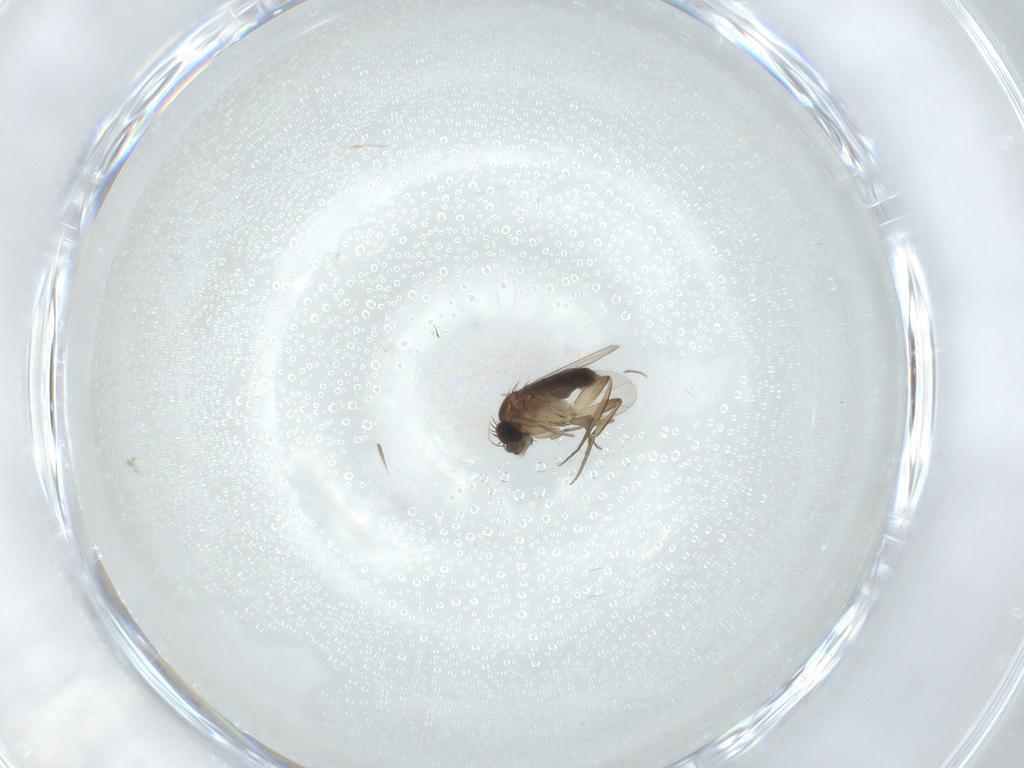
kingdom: Animalia
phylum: Arthropoda
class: Insecta
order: Diptera
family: Phoridae
